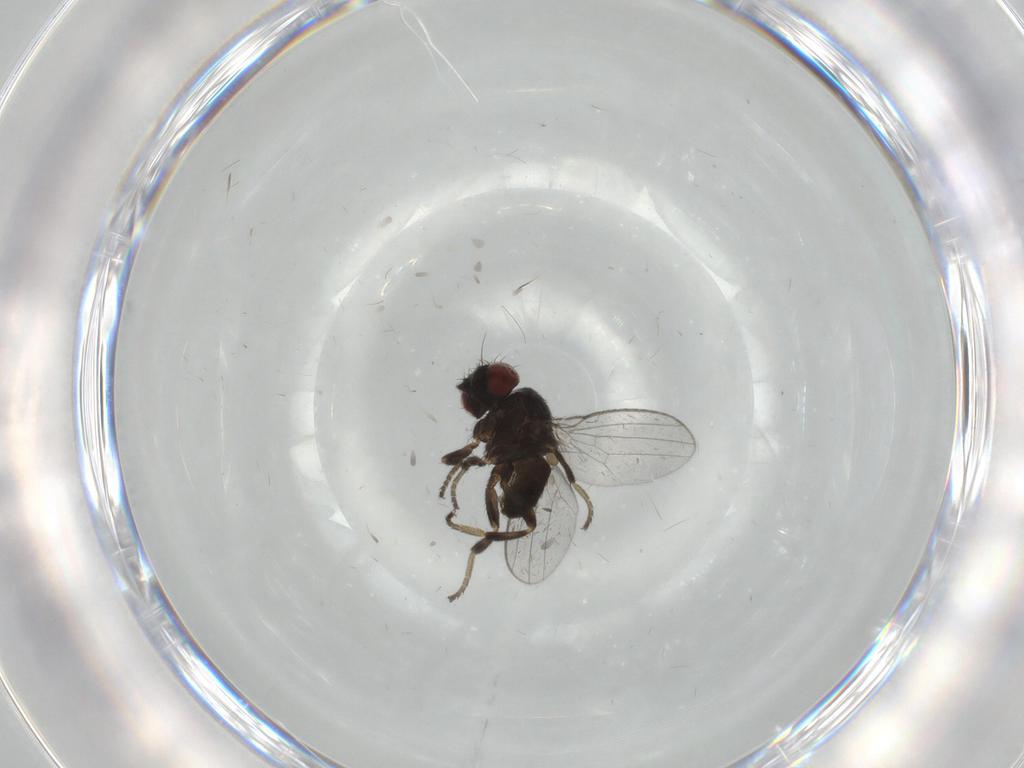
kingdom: Animalia
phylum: Arthropoda
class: Insecta
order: Diptera
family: Milichiidae
